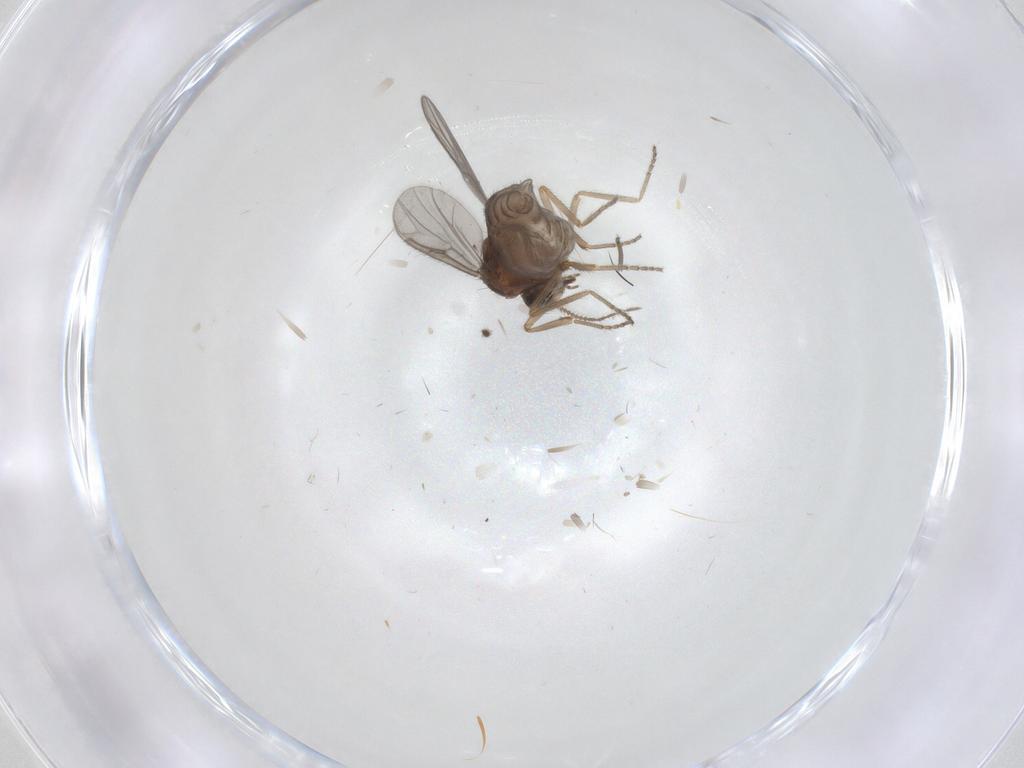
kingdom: Animalia
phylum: Arthropoda
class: Insecta
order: Diptera
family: Ceratopogonidae
